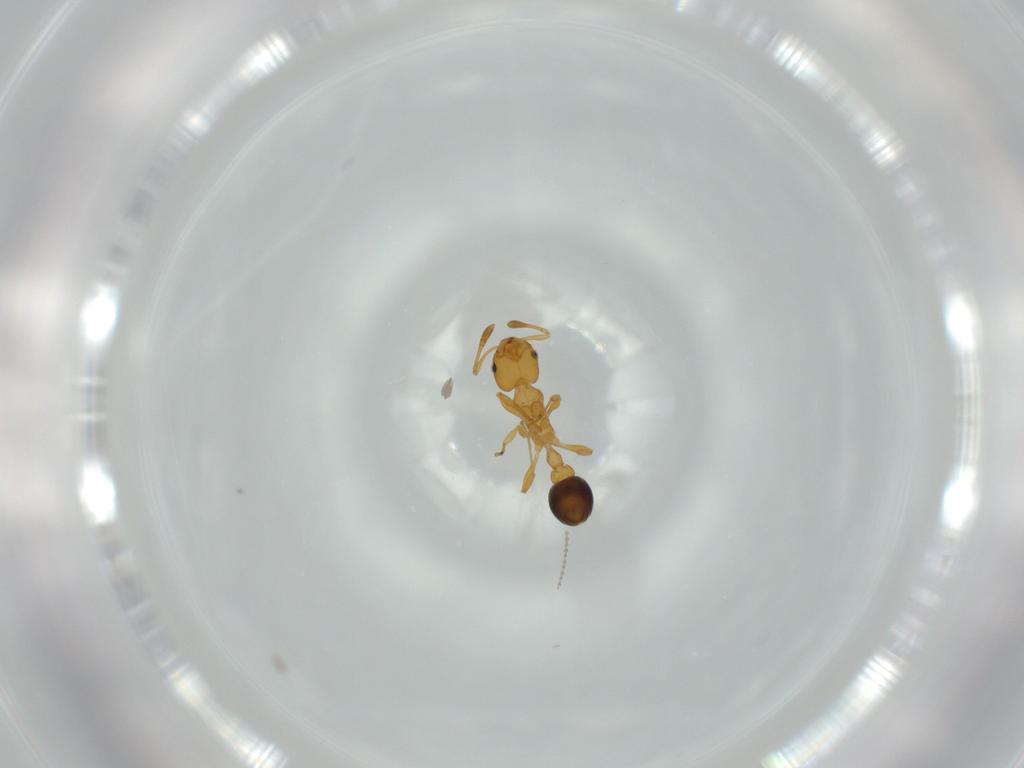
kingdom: Animalia
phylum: Arthropoda
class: Insecta
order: Hymenoptera
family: Formicidae
